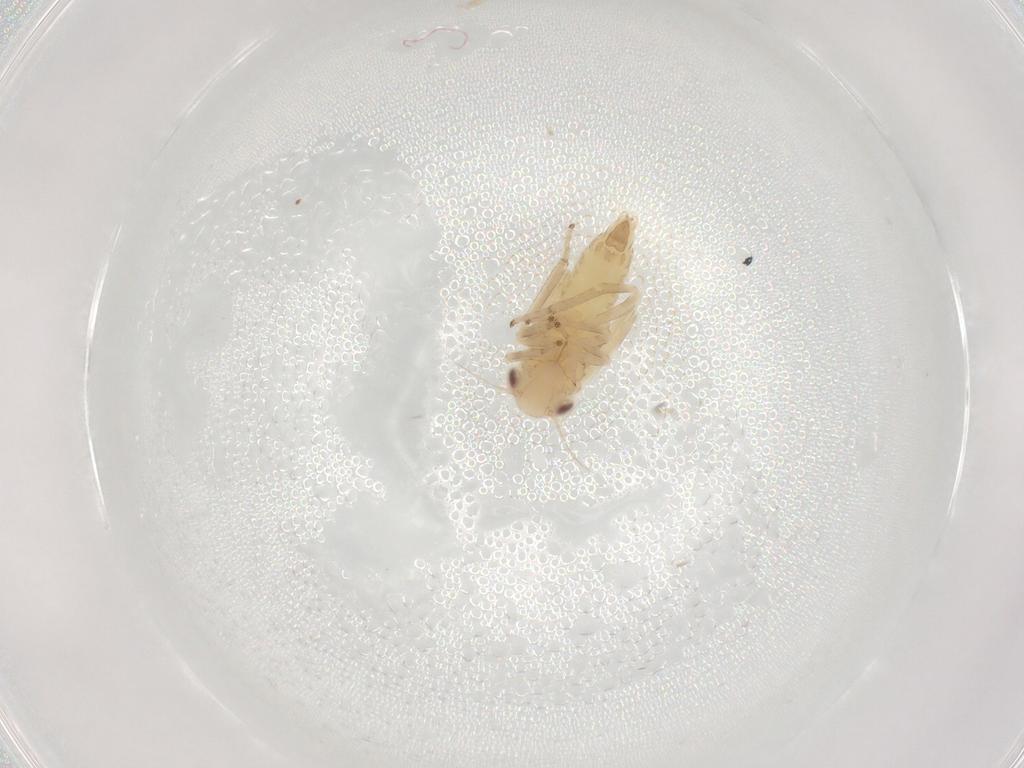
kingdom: Animalia
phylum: Arthropoda
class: Insecta
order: Hemiptera
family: Cicadellidae
